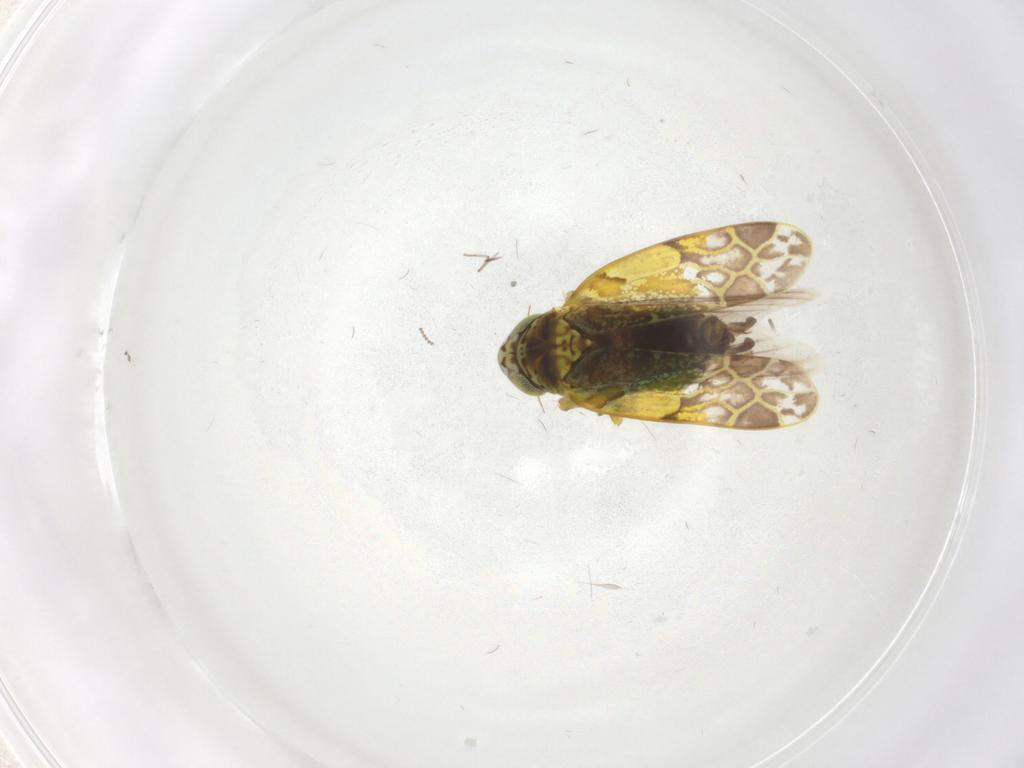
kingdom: Animalia
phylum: Arthropoda
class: Insecta
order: Hemiptera
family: Cicadellidae
